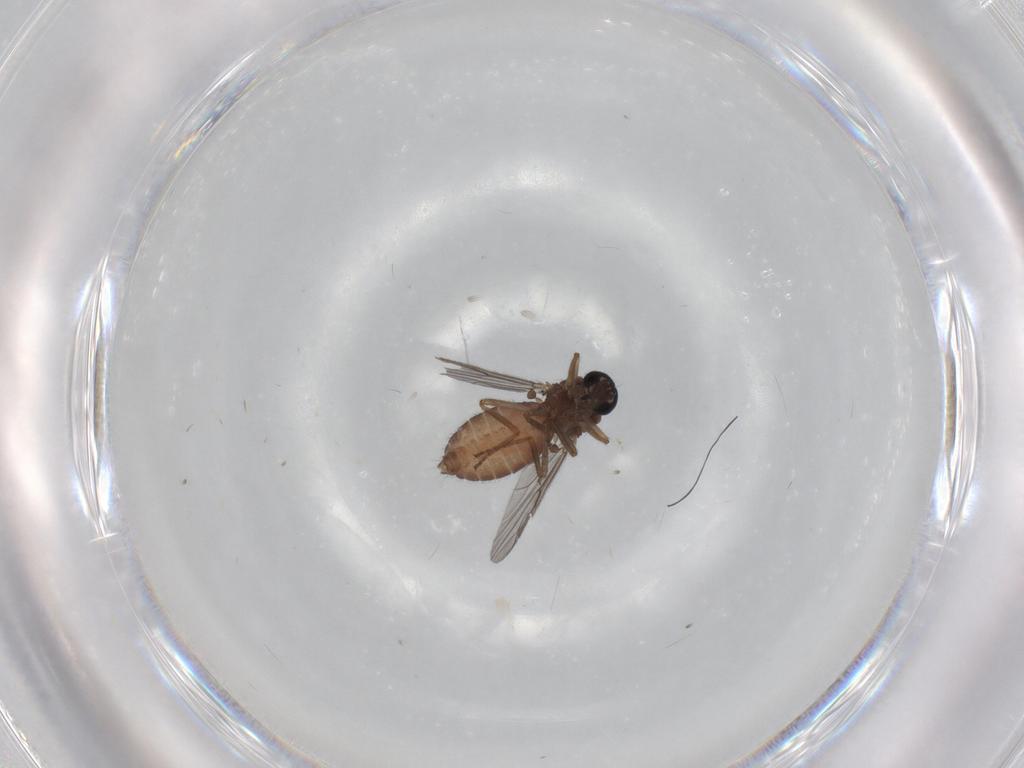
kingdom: Animalia
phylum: Arthropoda
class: Insecta
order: Diptera
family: Ceratopogonidae
